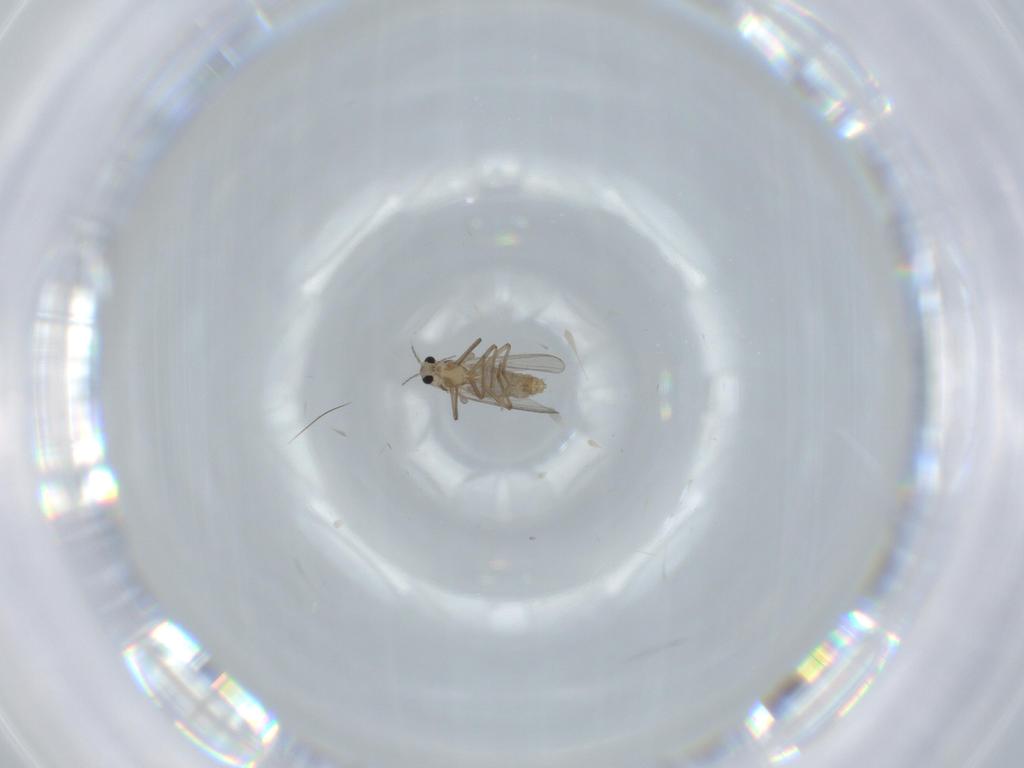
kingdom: Animalia
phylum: Arthropoda
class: Insecta
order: Diptera
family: Chironomidae
